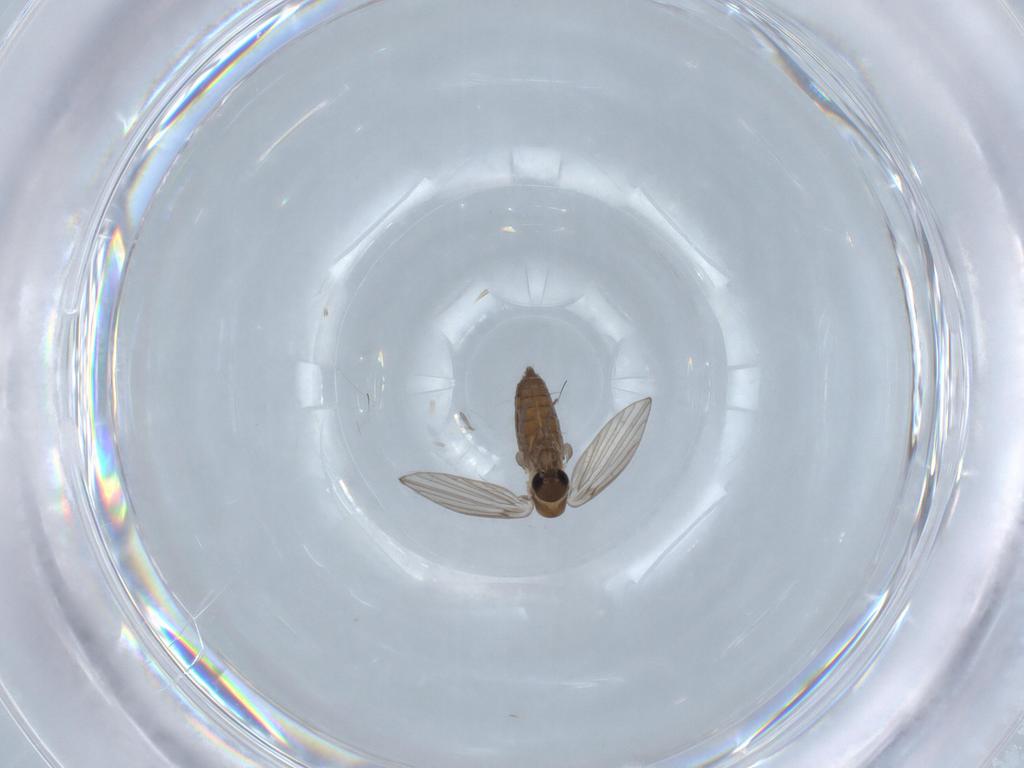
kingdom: Animalia
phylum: Arthropoda
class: Insecta
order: Diptera
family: Psychodidae
